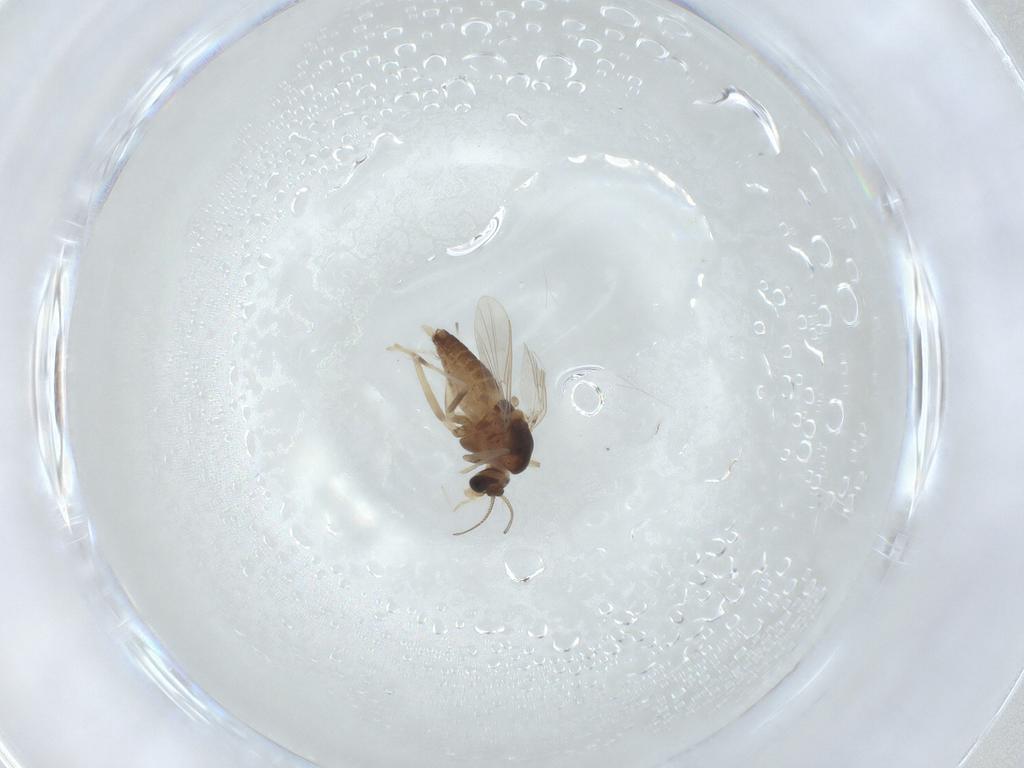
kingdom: Animalia
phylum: Arthropoda
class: Insecta
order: Diptera
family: Chironomidae
